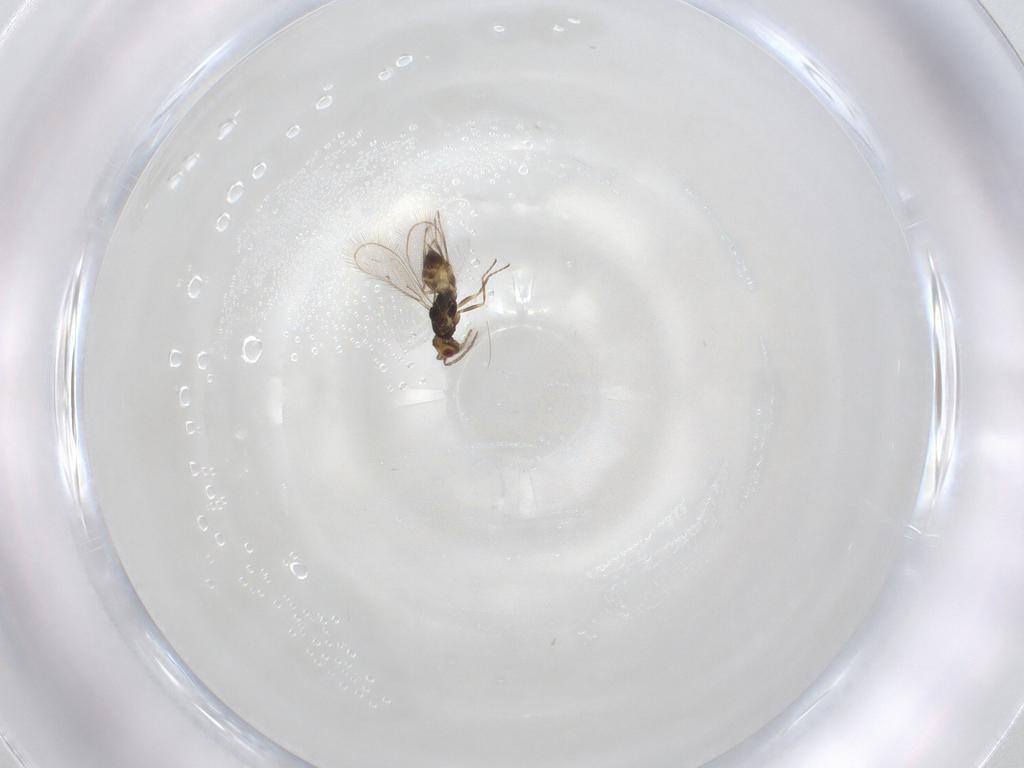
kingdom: Animalia
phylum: Arthropoda
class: Insecta
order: Hymenoptera
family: Eulophidae
